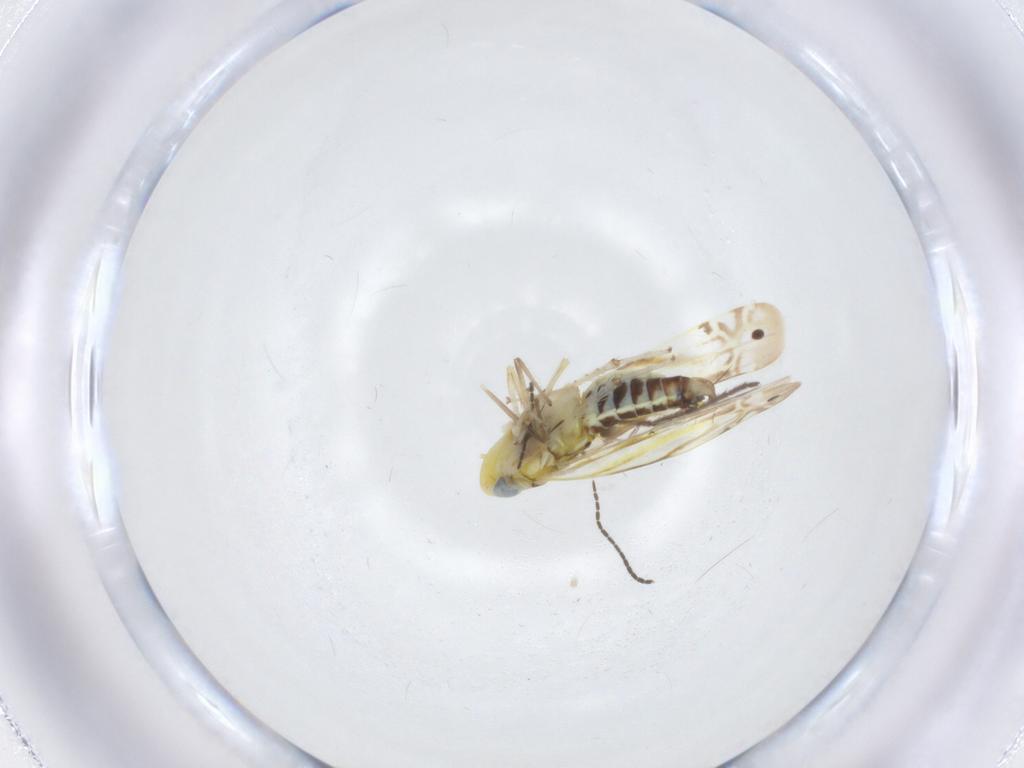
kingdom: Animalia
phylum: Arthropoda
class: Insecta
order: Hemiptera
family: Cicadellidae
